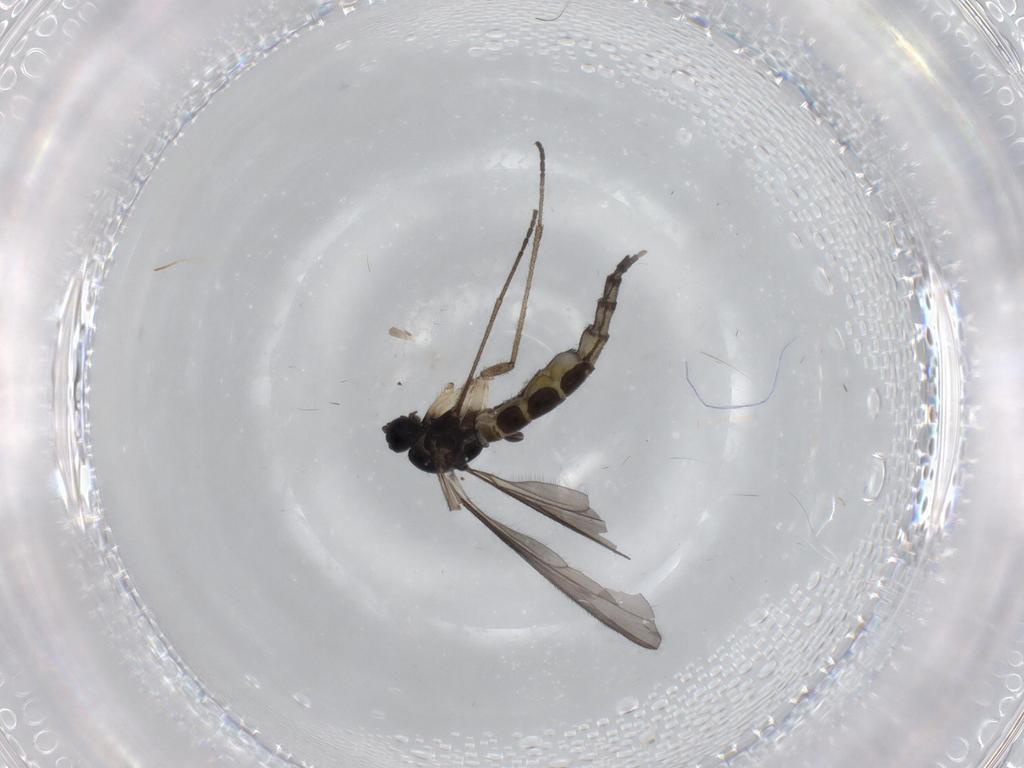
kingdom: Animalia
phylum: Arthropoda
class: Insecta
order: Diptera
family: Sciaridae
